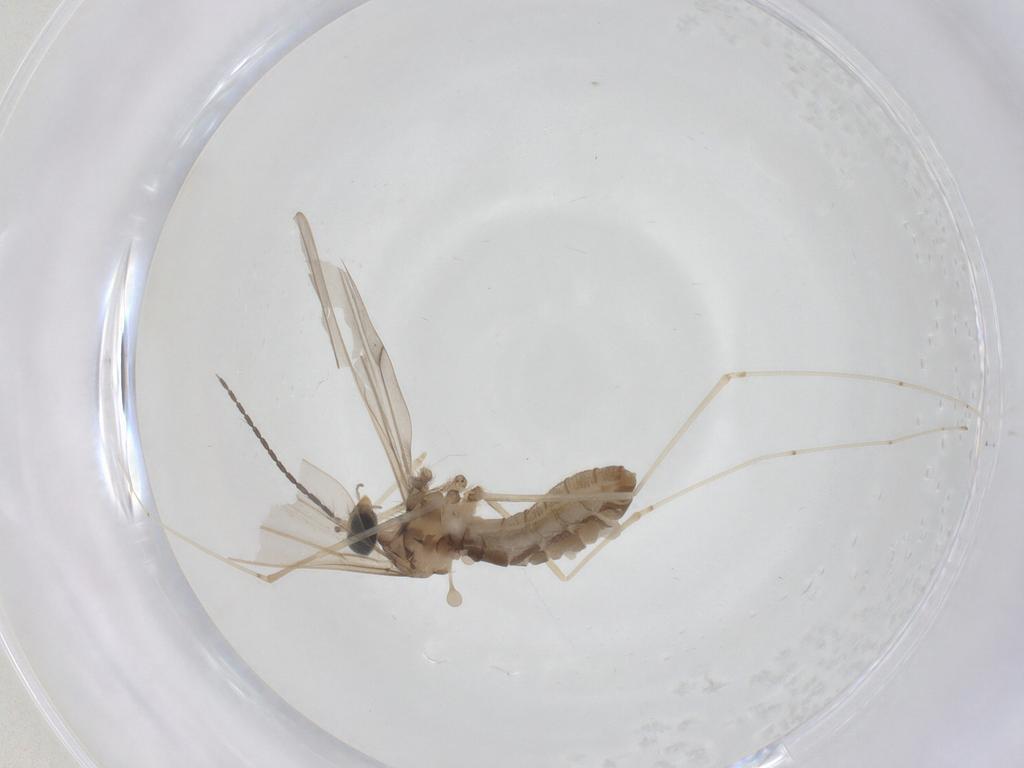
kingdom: Animalia
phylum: Arthropoda
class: Insecta
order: Diptera
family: Cecidomyiidae
